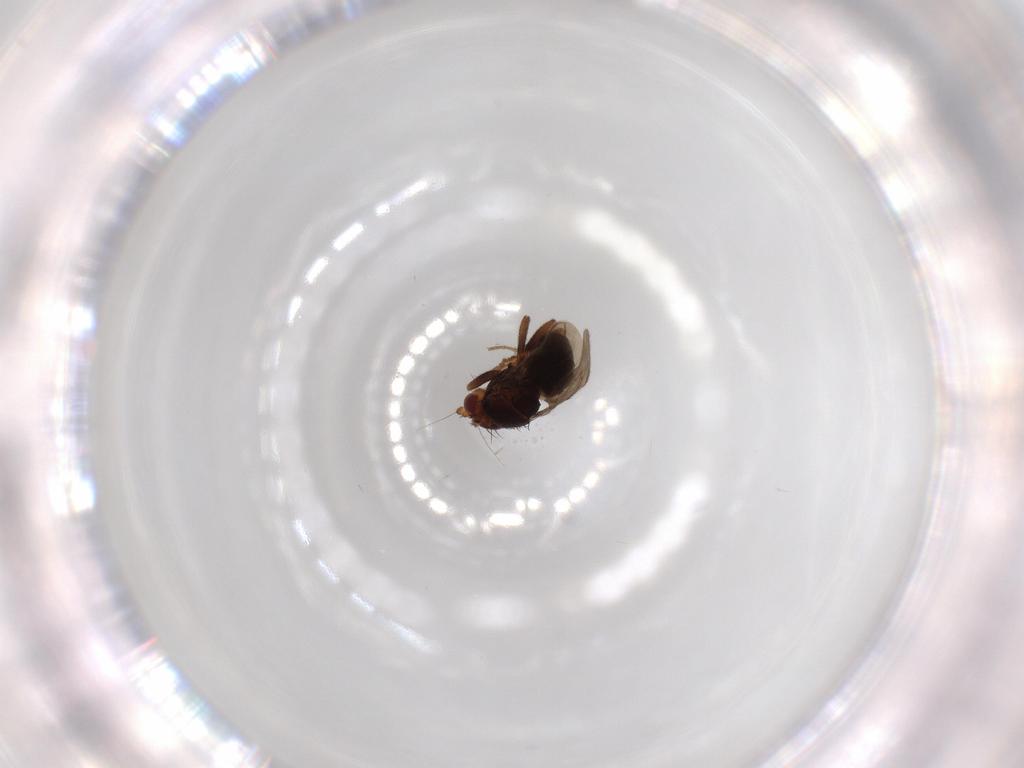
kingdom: Animalia
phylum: Arthropoda
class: Insecta
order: Diptera
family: Sphaeroceridae
